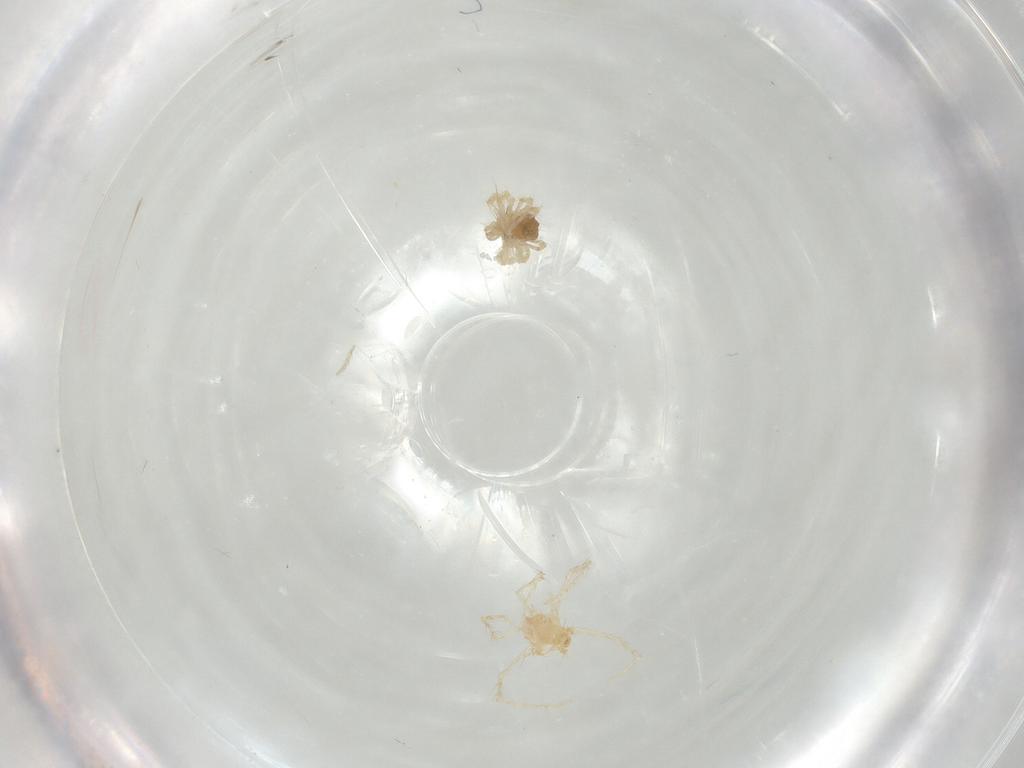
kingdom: Animalia
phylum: Arthropoda
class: Arachnida
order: Trombidiformes
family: Erythraeidae
